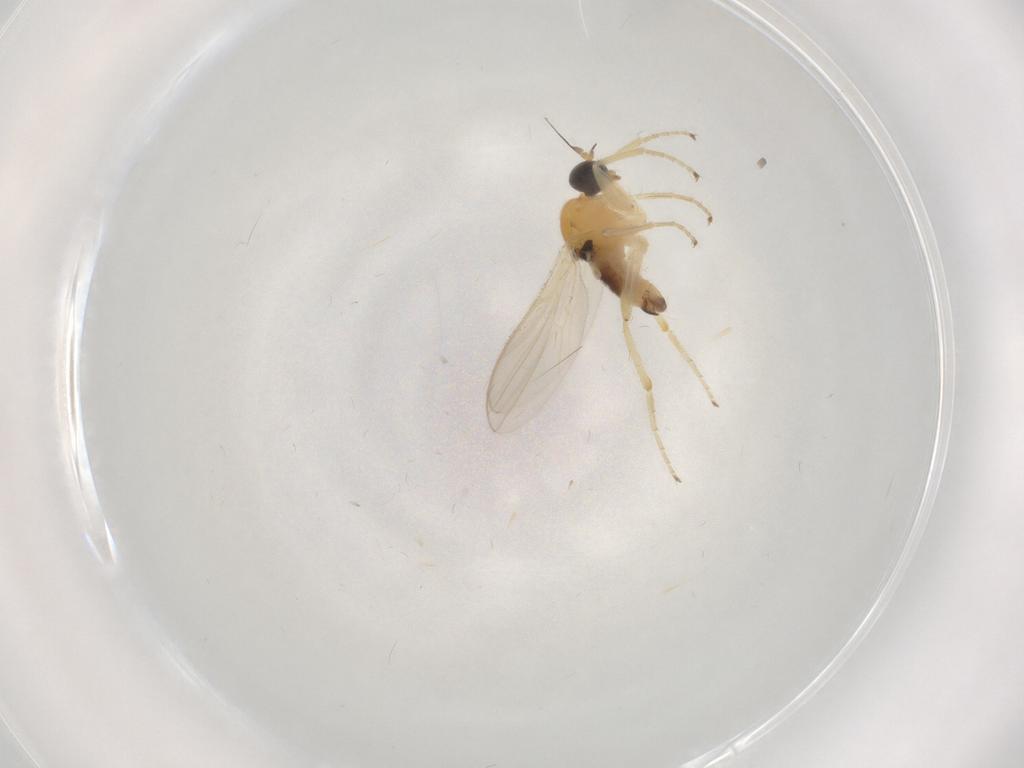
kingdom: Animalia
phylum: Arthropoda
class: Insecta
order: Diptera
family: Hybotidae
